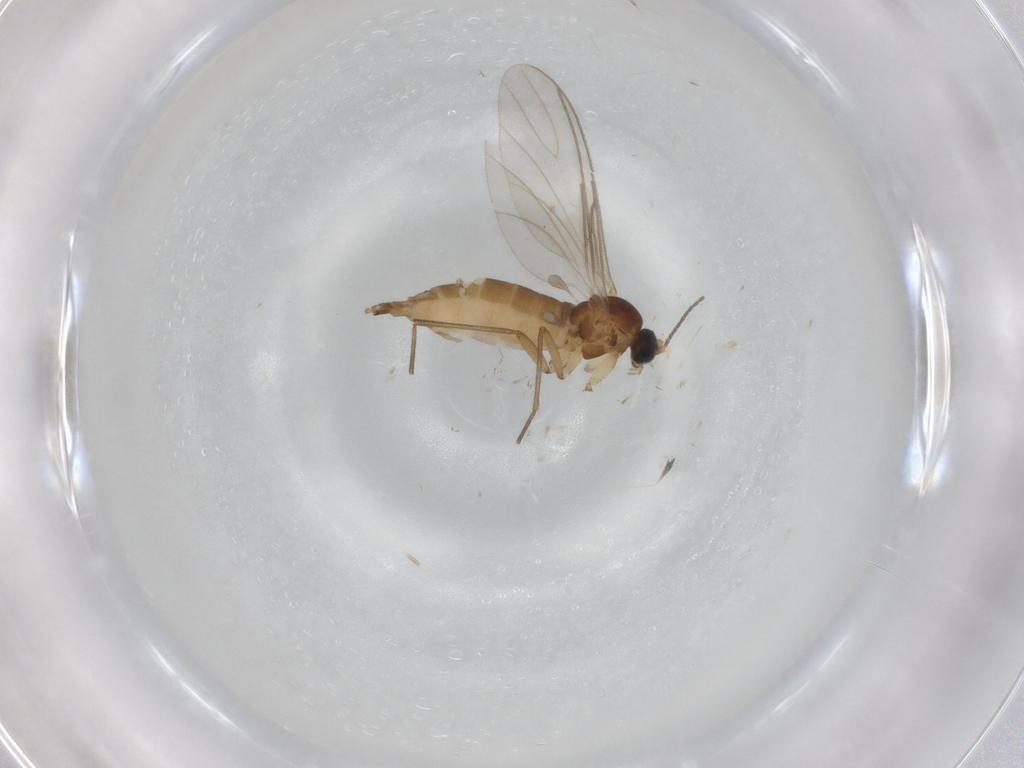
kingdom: Animalia
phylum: Arthropoda
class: Insecta
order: Diptera
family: Sciaridae
